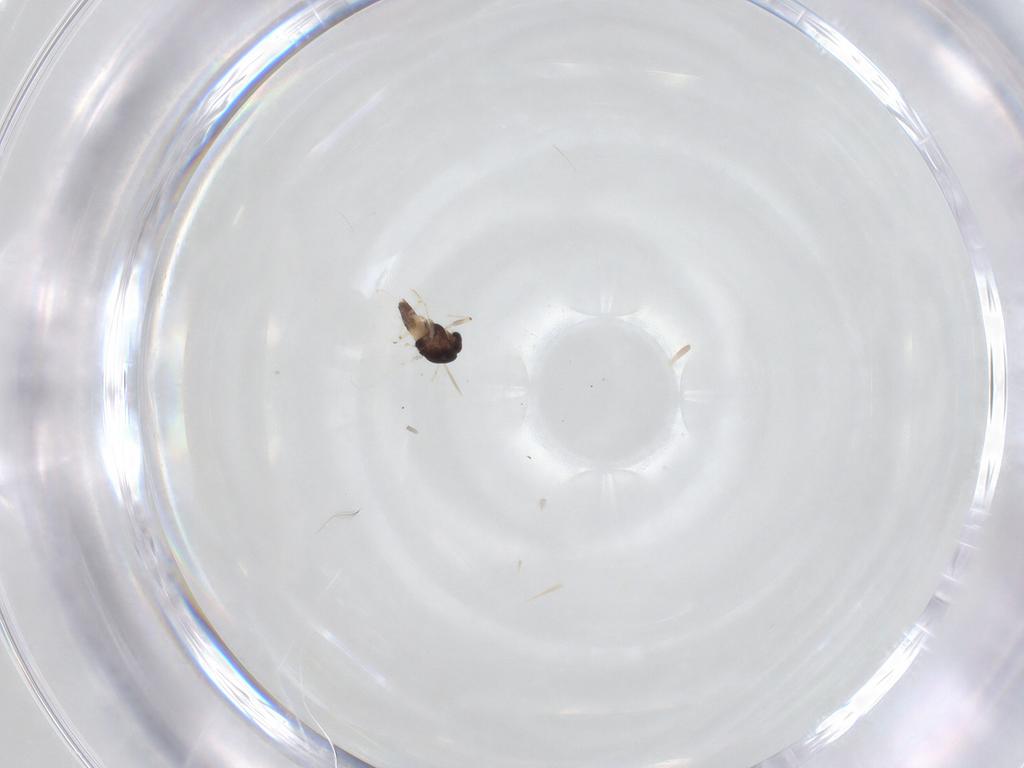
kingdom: Animalia
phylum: Arthropoda
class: Insecta
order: Diptera
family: Chironomidae
